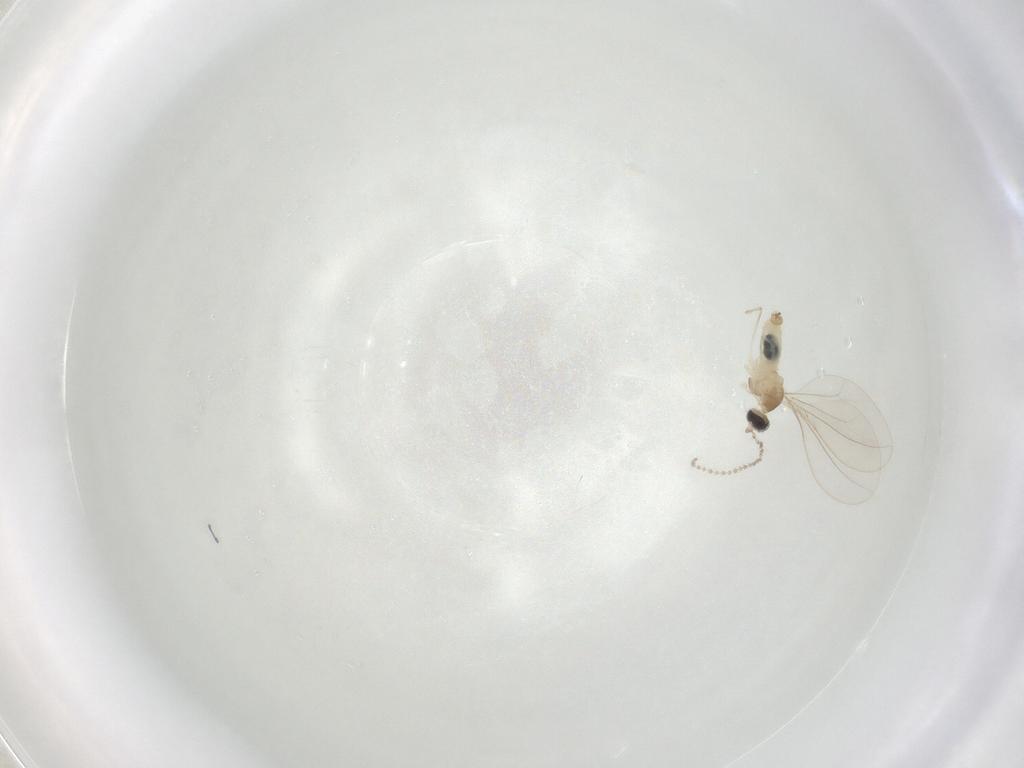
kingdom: Animalia
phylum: Arthropoda
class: Insecta
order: Diptera
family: Cecidomyiidae
